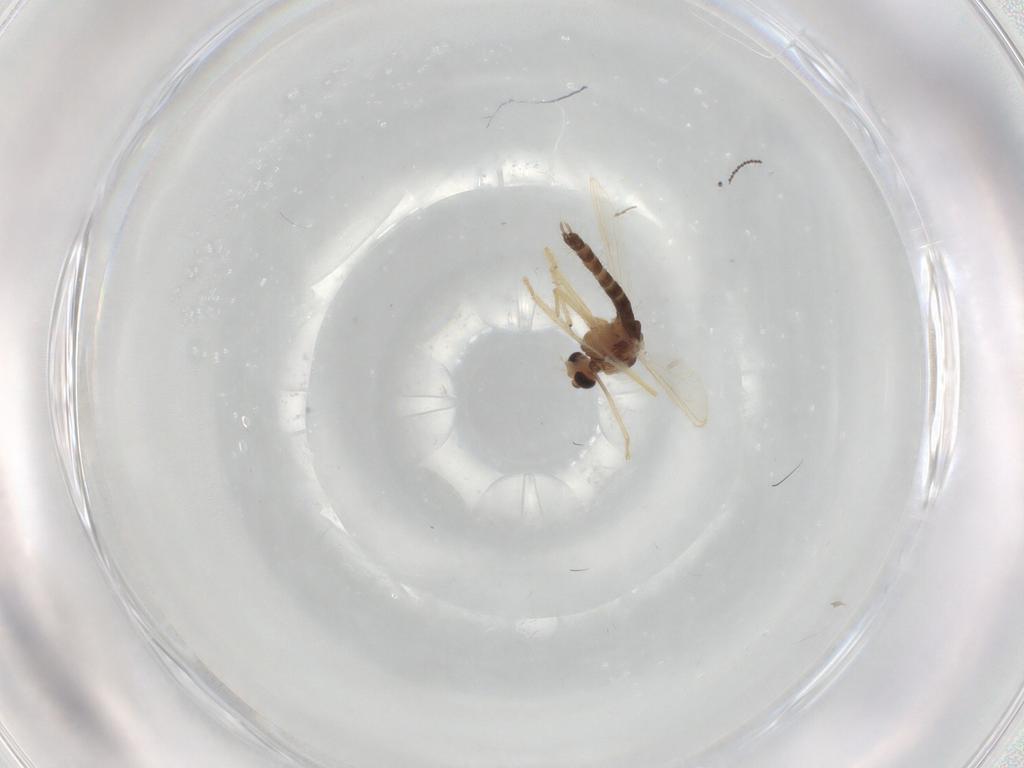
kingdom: Animalia
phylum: Arthropoda
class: Insecta
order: Diptera
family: Chironomidae
